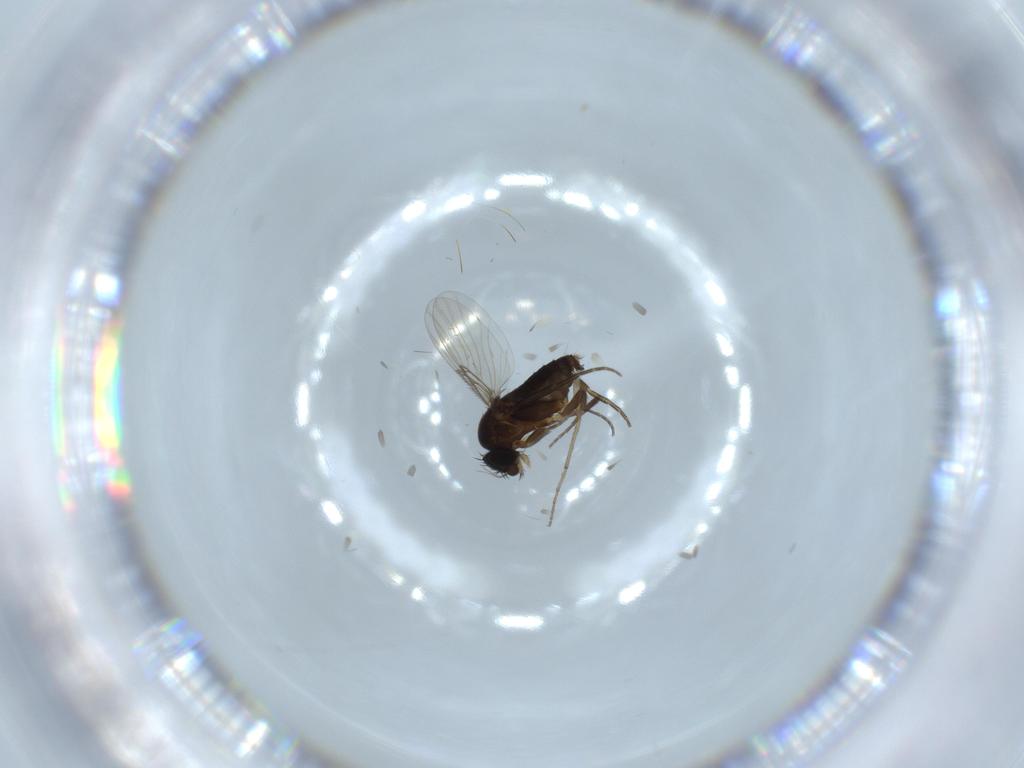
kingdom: Animalia
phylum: Arthropoda
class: Insecta
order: Diptera
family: Phoridae
